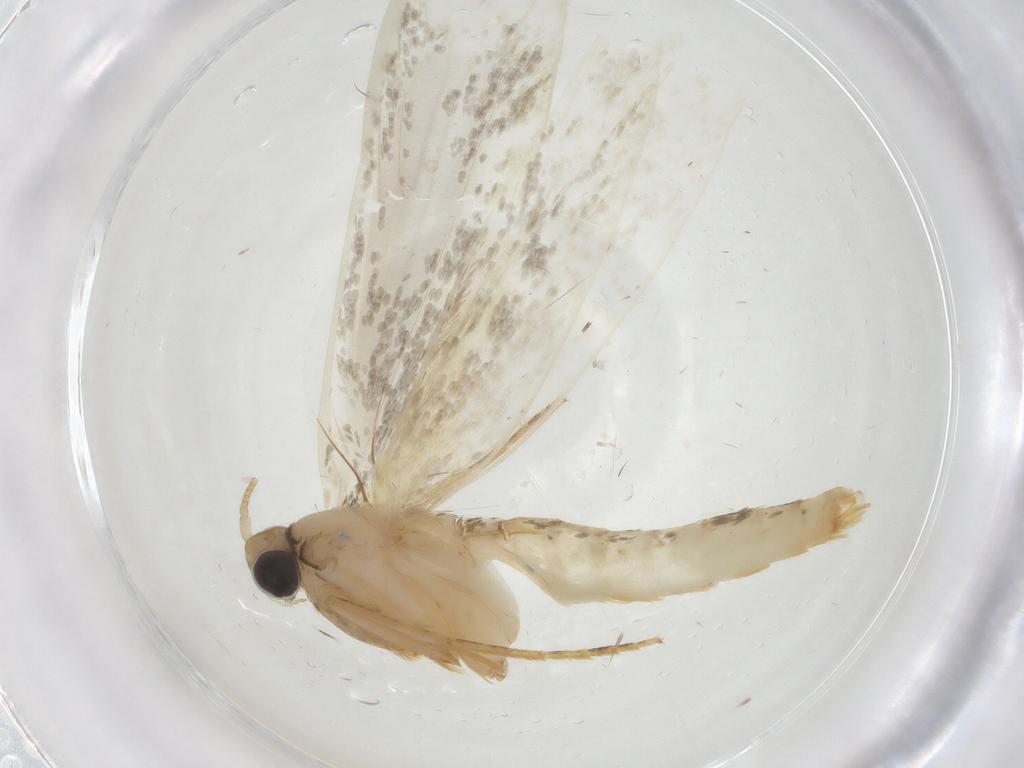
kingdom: Animalia
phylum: Arthropoda
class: Insecta
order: Lepidoptera
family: Tineidae
